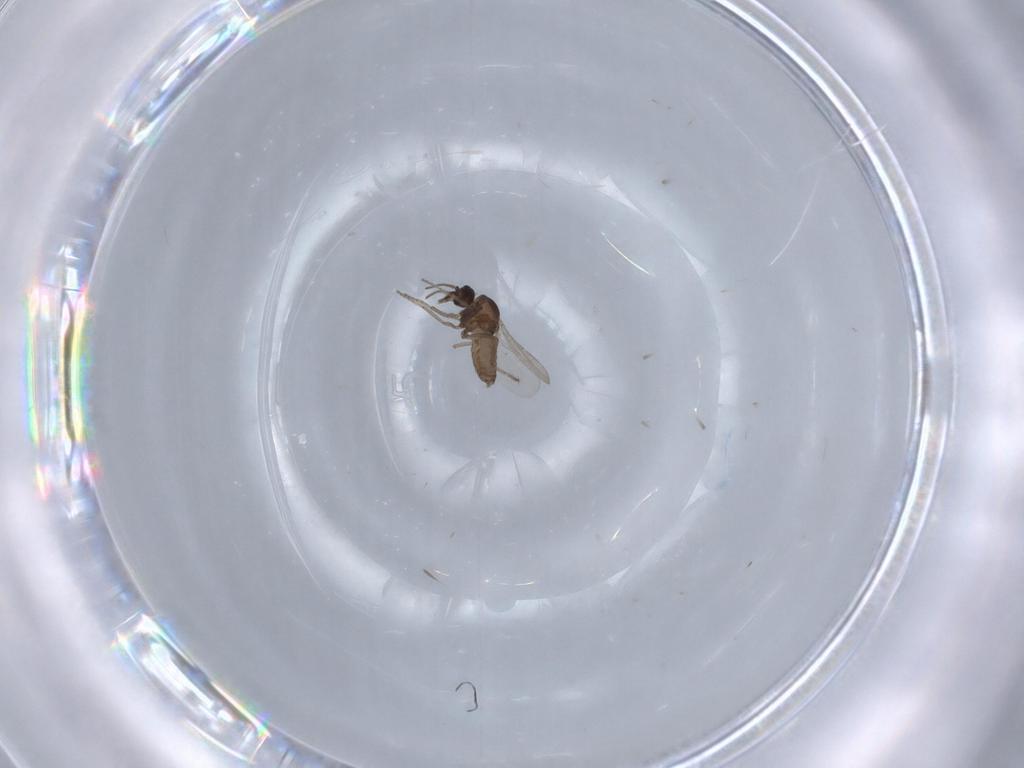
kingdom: Animalia
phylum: Arthropoda
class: Insecta
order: Diptera
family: Ceratopogonidae
